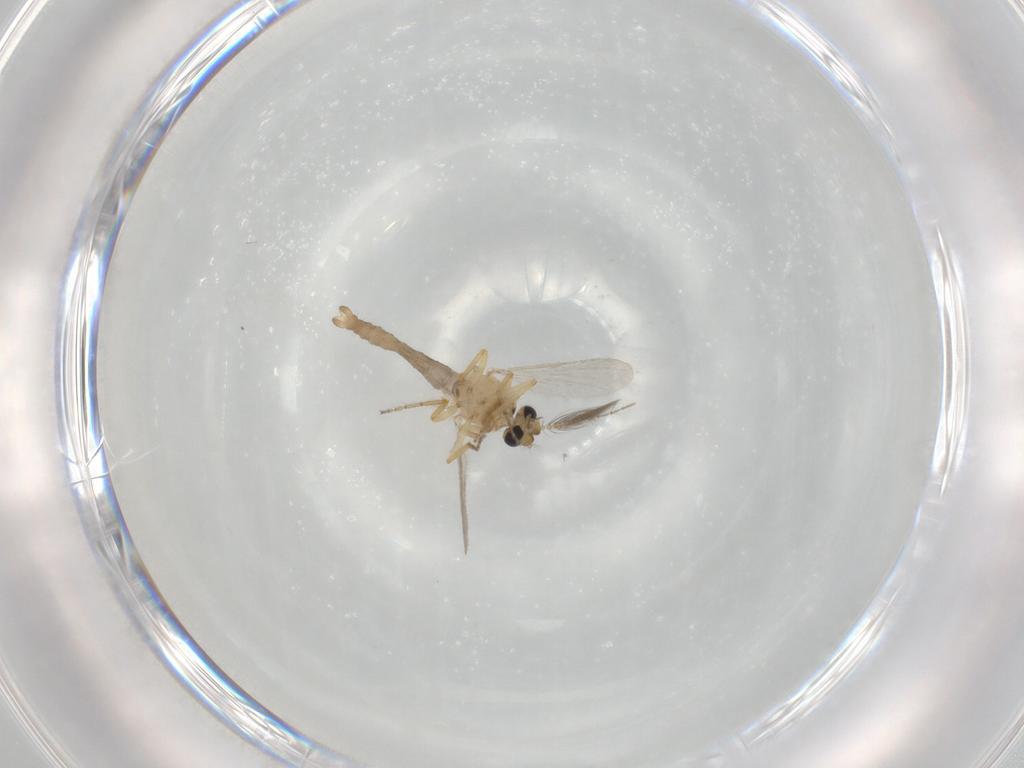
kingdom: Animalia
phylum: Arthropoda
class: Insecta
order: Diptera
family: Ceratopogonidae
